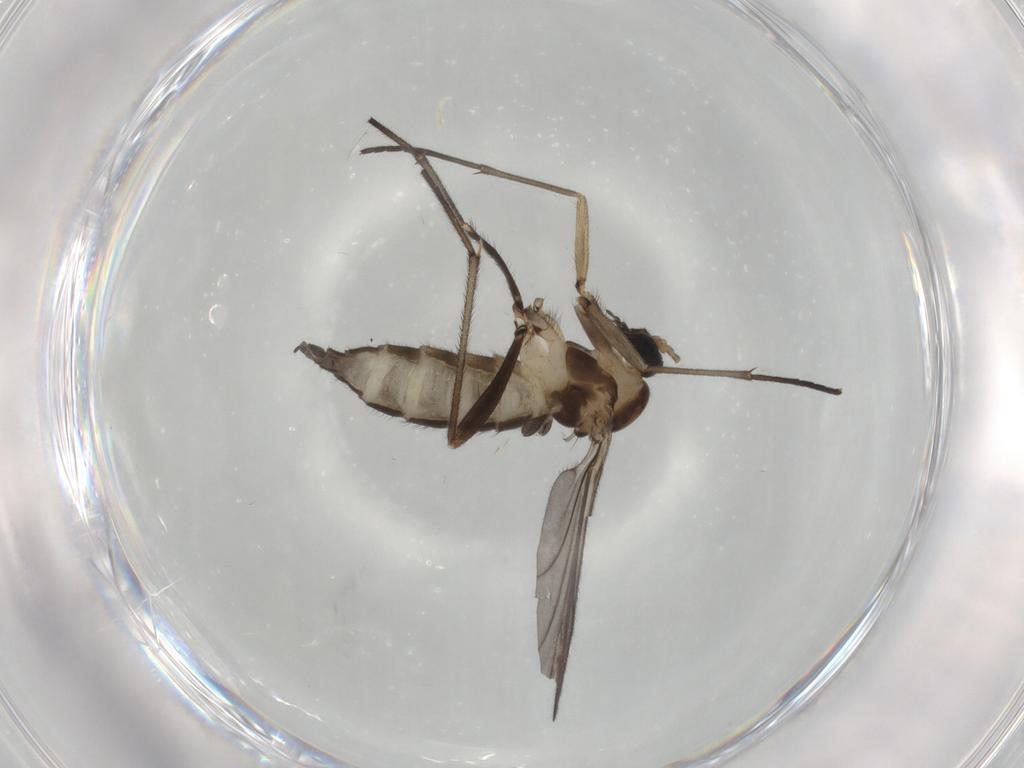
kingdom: Animalia
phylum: Arthropoda
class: Insecta
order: Diptera
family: Sciaridae
